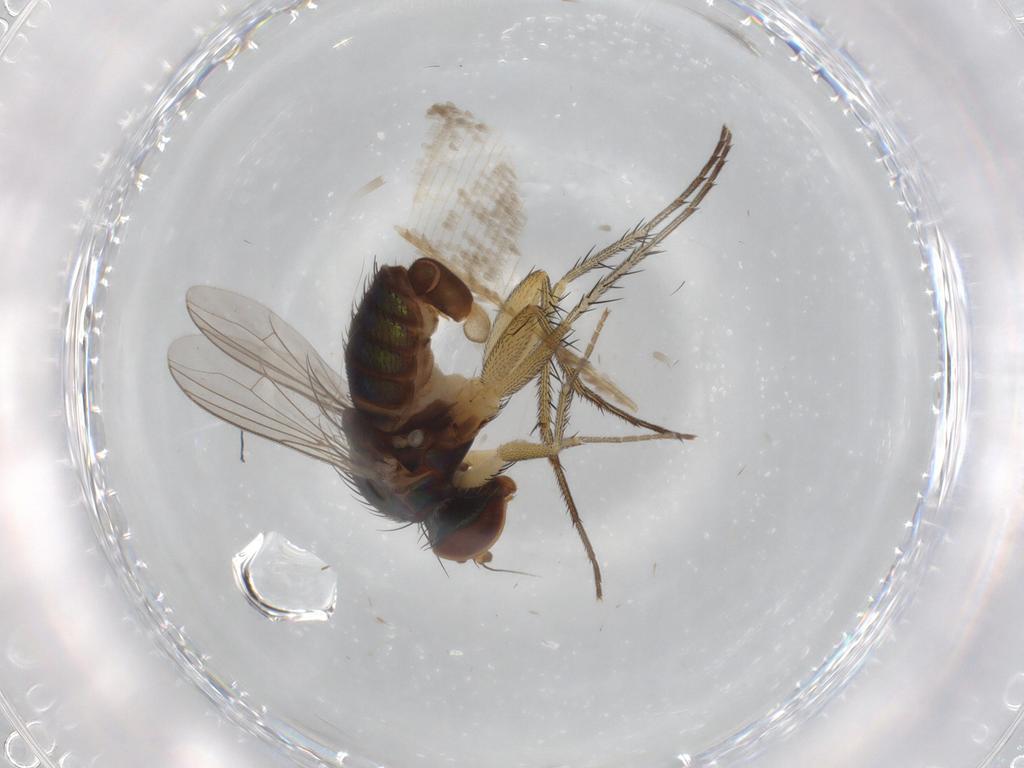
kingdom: Animalia
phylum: Arthropoda
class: Insecta
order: Diptera
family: Dolichopodidae
